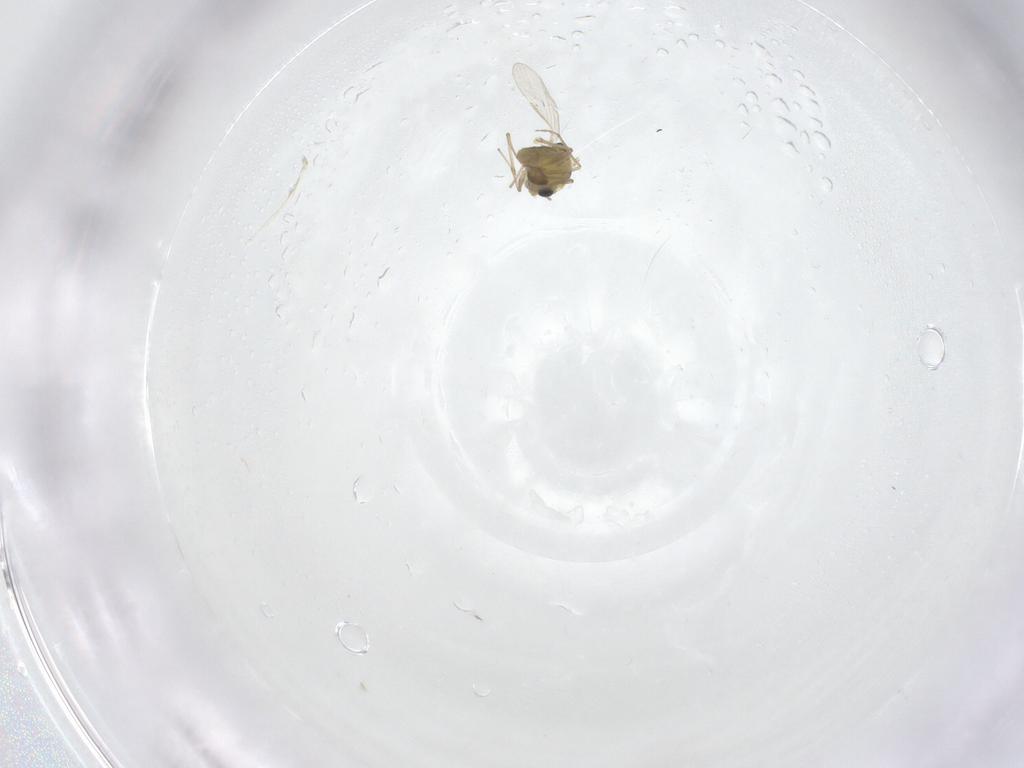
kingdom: Animalia
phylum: Arthropoda
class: Insecta
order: Diptera
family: Chironomidae
